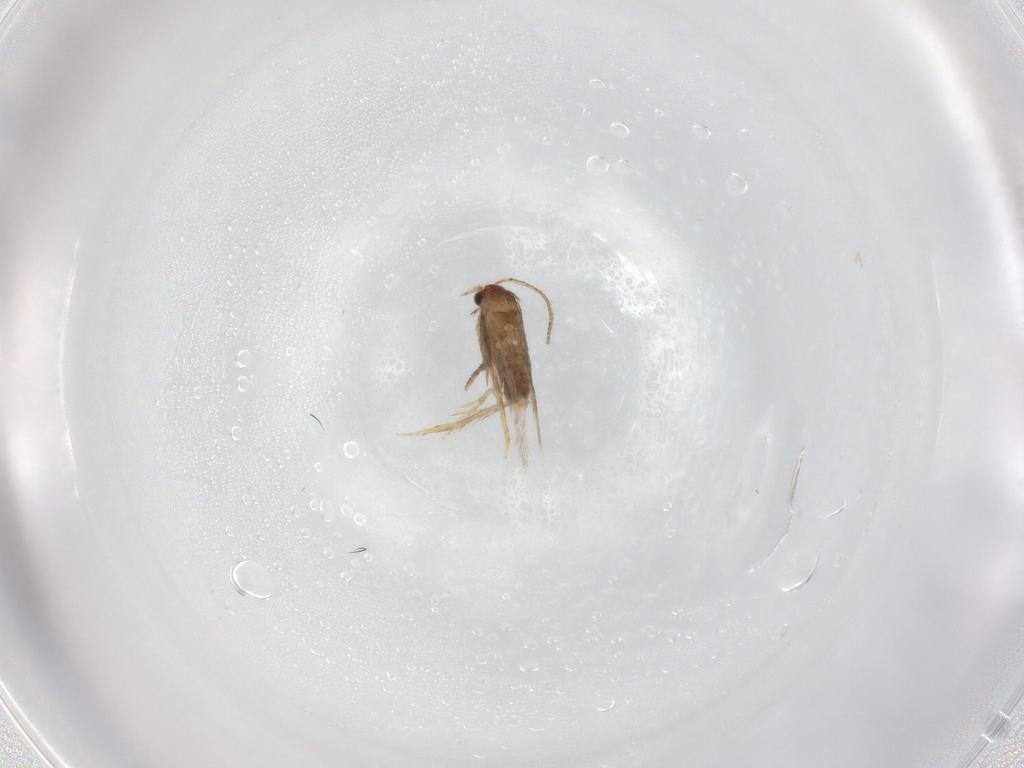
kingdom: Animalia
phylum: Arthropoda
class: Insecta
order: Lepidoptera
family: Nepticulidae
